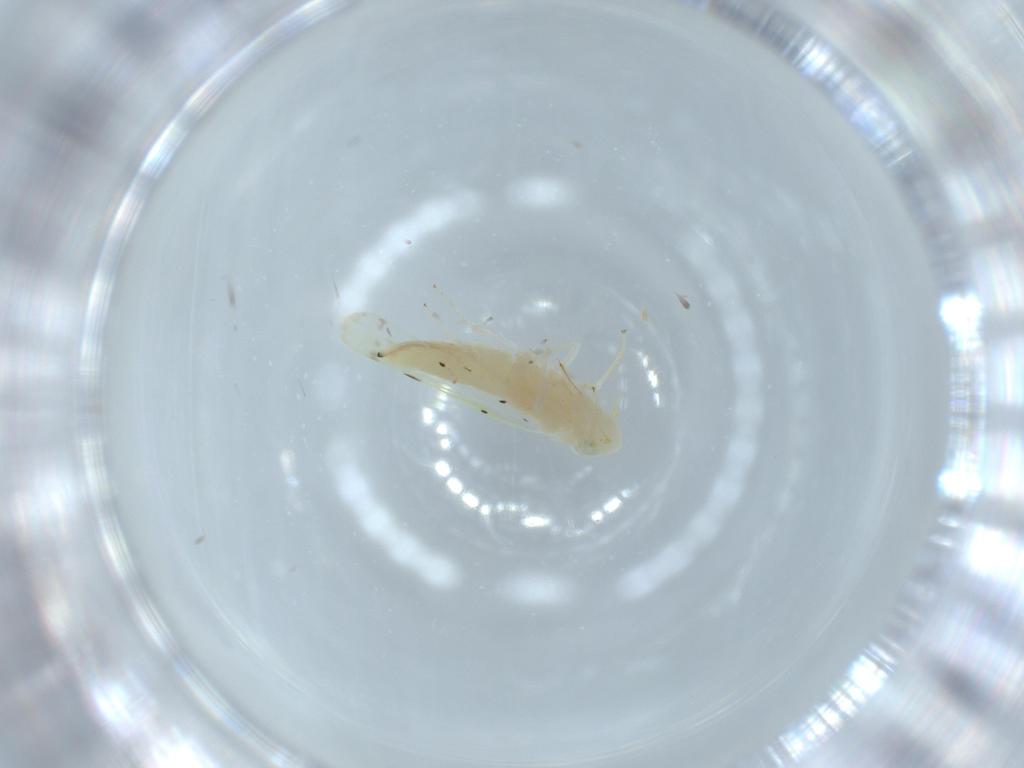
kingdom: Animalia
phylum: Arthropoda
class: Insecta
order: Hemiptera
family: Cicadellidae
